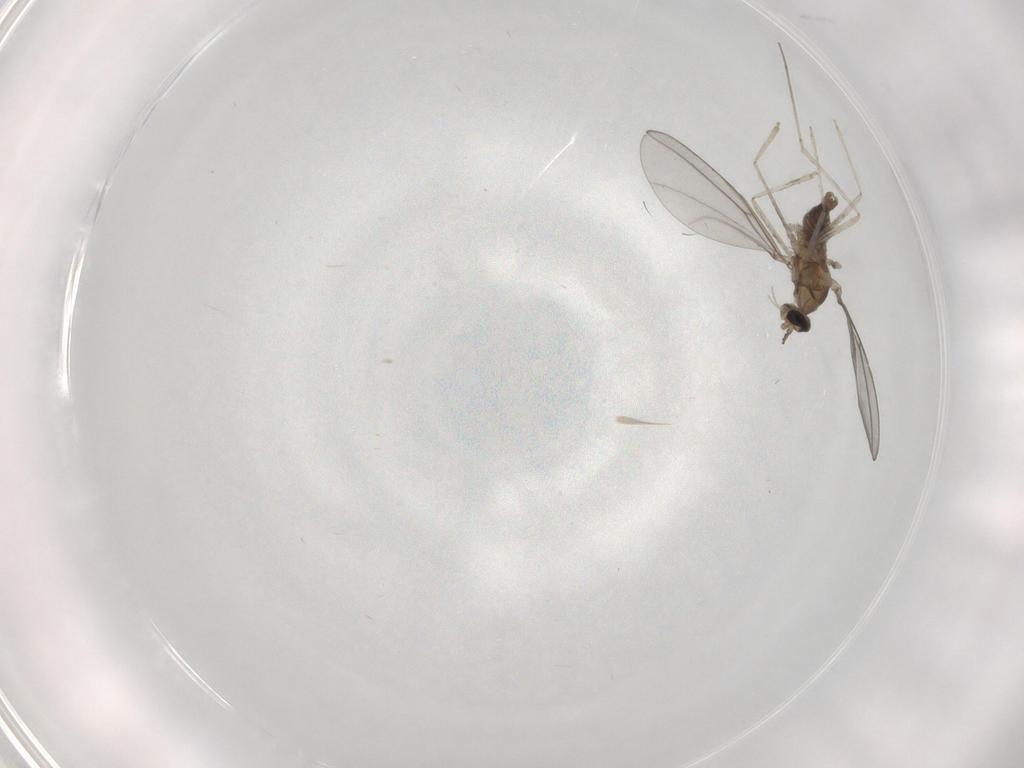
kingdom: Animalia
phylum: Arthropoda
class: Insecta
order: Diptera
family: Cecidomyiidae
